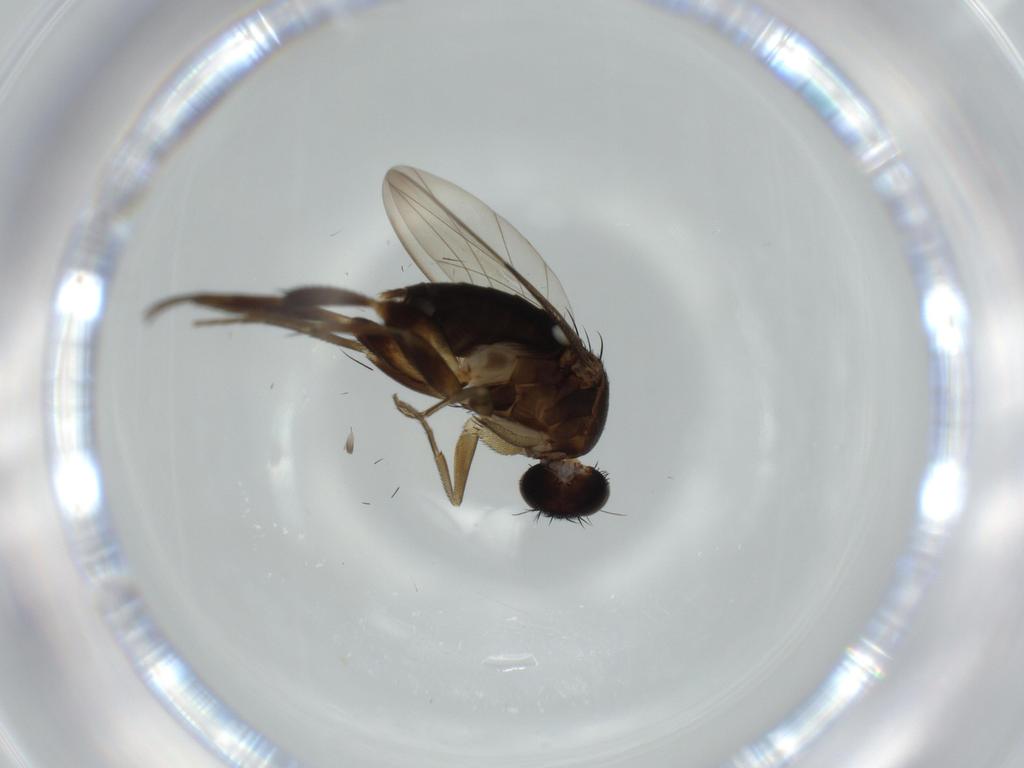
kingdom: Animalia
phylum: Arthropoda
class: Insecta
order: Diptera
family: Phoridae
